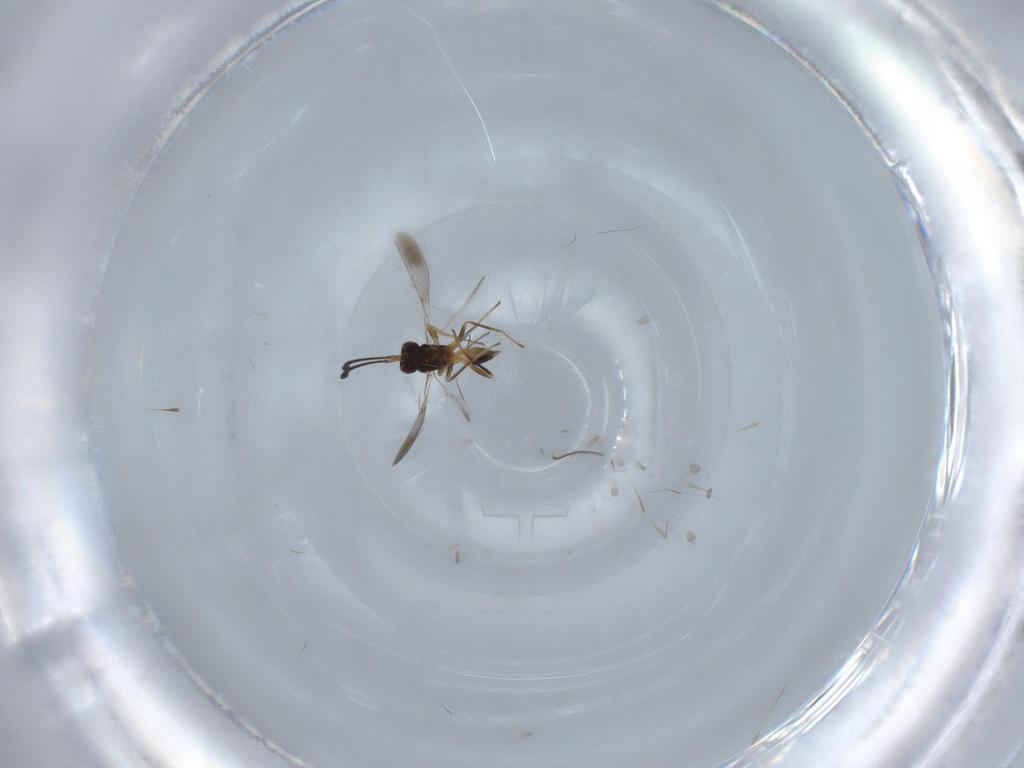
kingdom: Animalia
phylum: Arthropoda
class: Insecta
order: Hymenoptera
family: Mymaridae
